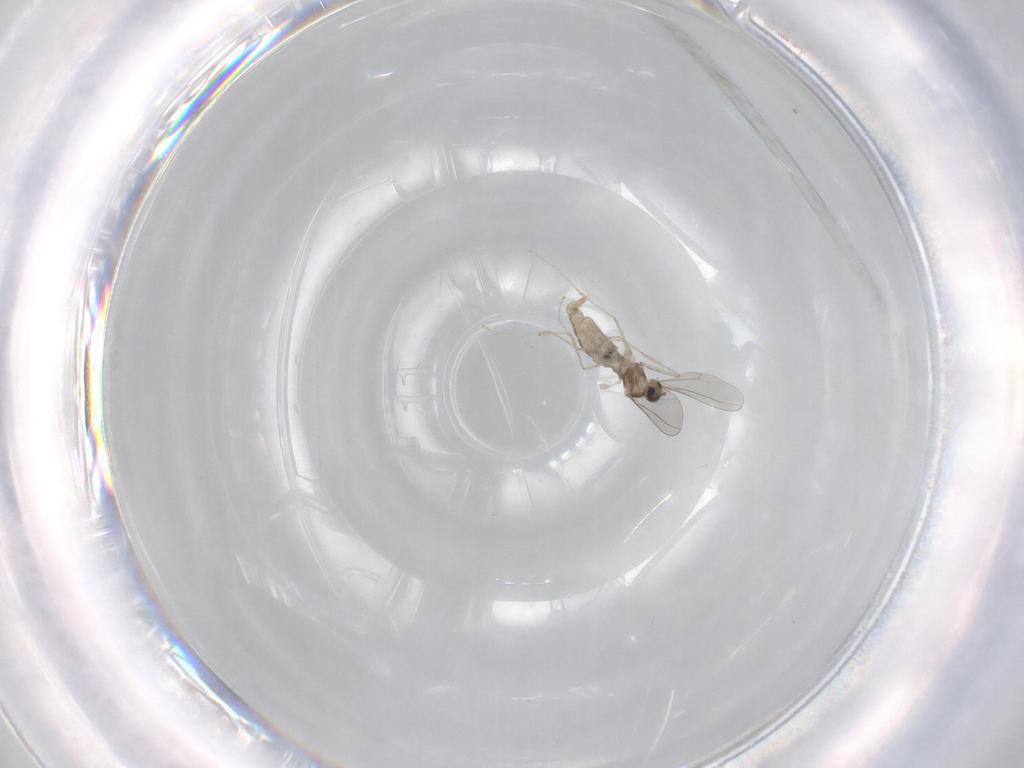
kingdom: Animalia
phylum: Arthropoda
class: Insecta
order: Diptera
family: Chironomidae
